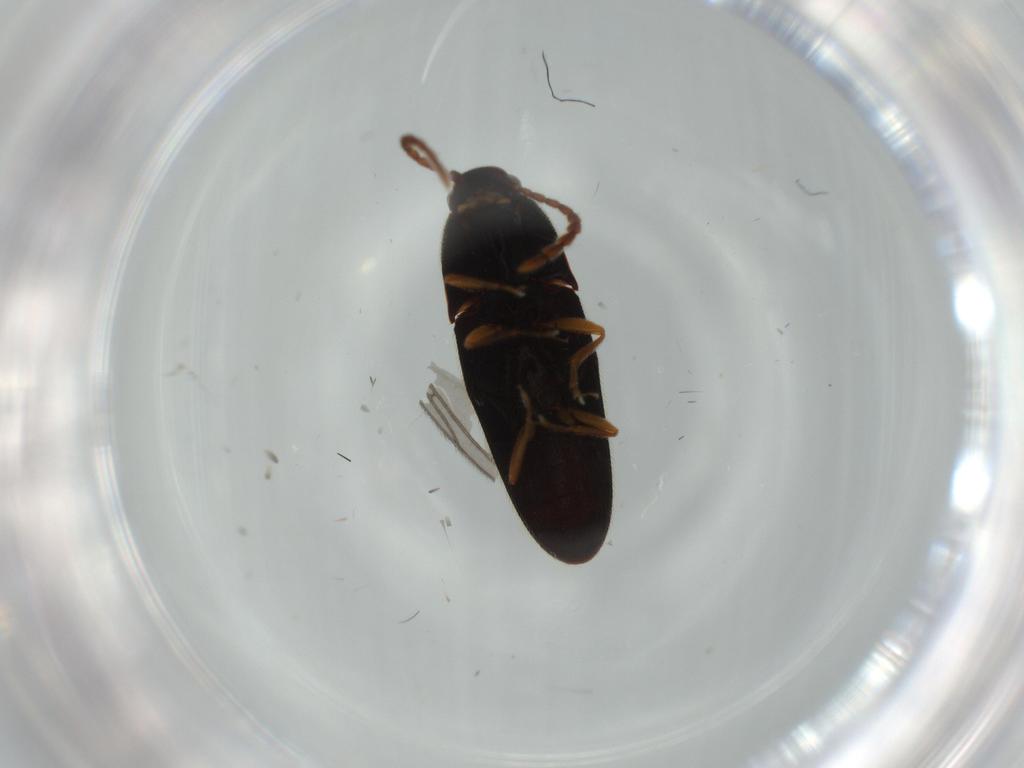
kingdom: Animalia
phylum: Arthropoda
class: Insecta
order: Coleoptera
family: Elateridae
